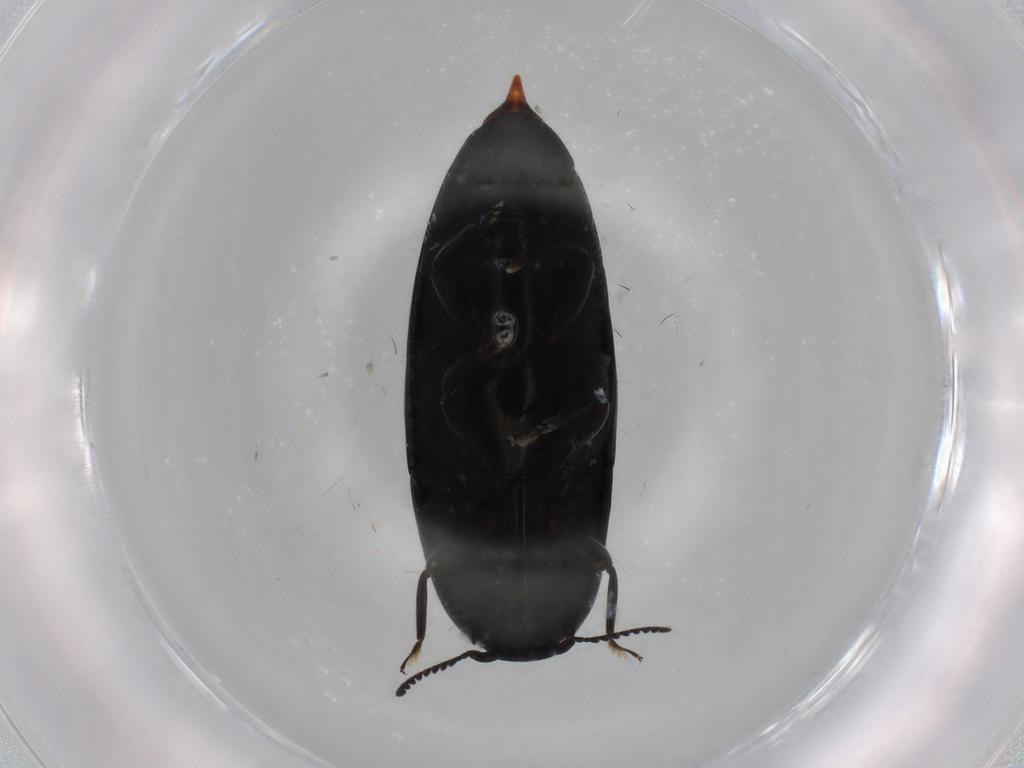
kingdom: Animalia
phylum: Arthropoda
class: Insecta
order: Coleoptera
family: Elateridae
